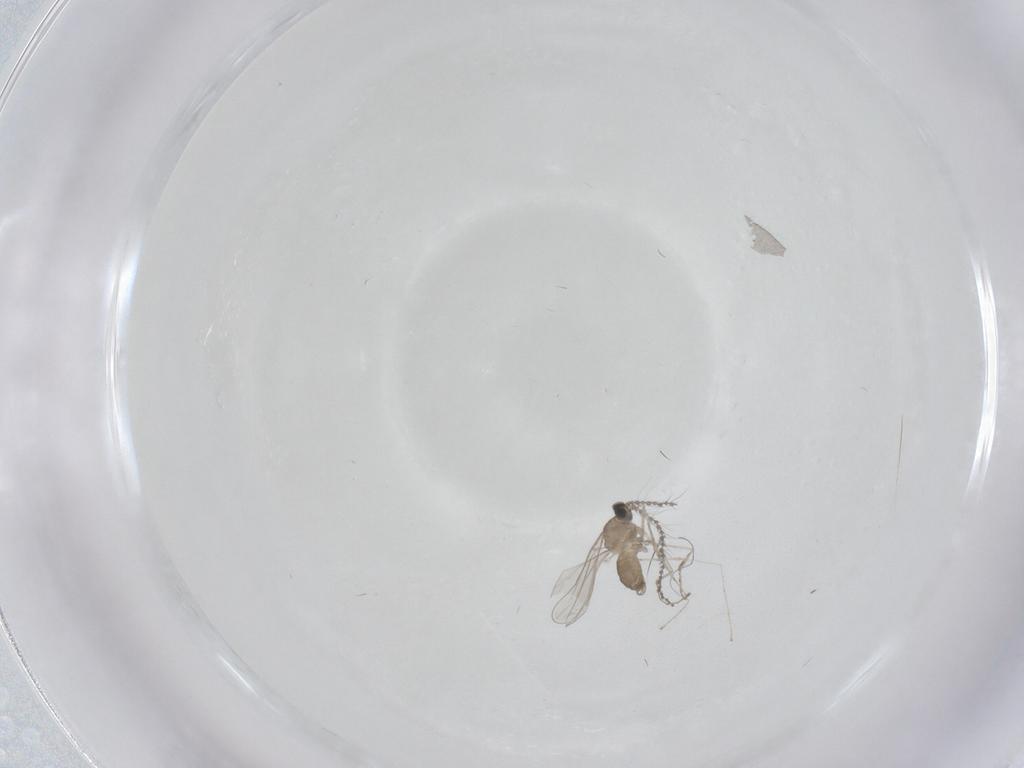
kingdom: Animalia
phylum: Arthropoda
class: Insecta
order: Diptera
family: Cecidomyiidae
